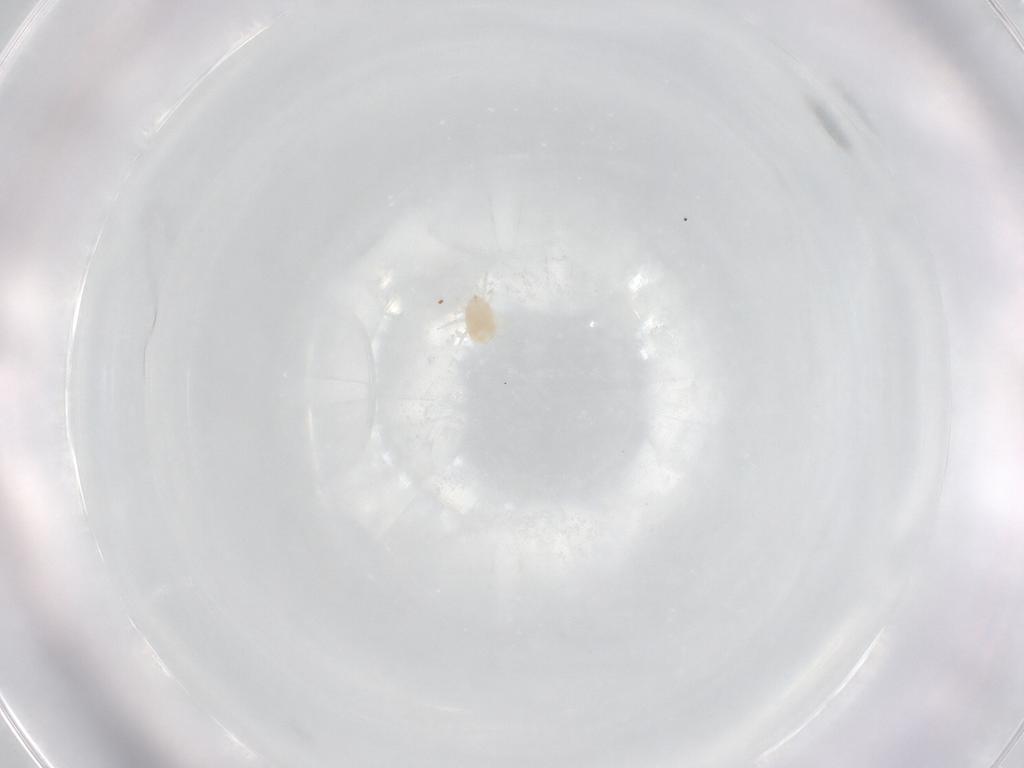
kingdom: Animalia
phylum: Arthropoda
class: Arachnida
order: Mesostigmata
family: Phytoseiidae
